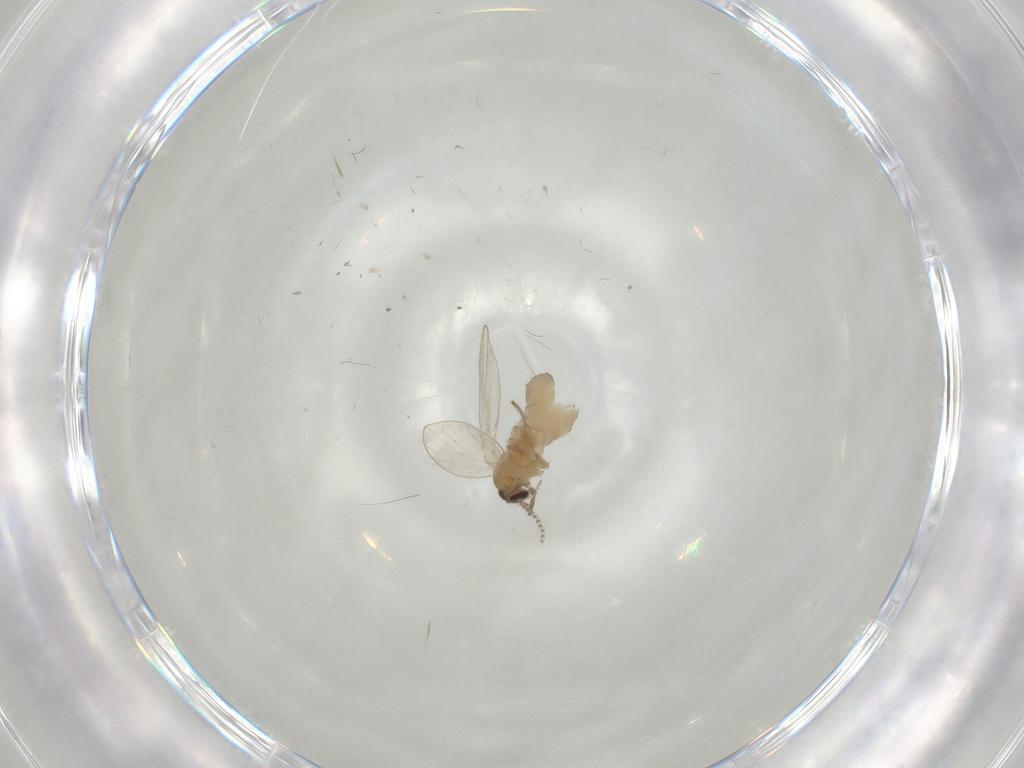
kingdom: Animalia
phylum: Arthropoda
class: Insecta
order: Diptera
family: Psychodidae
